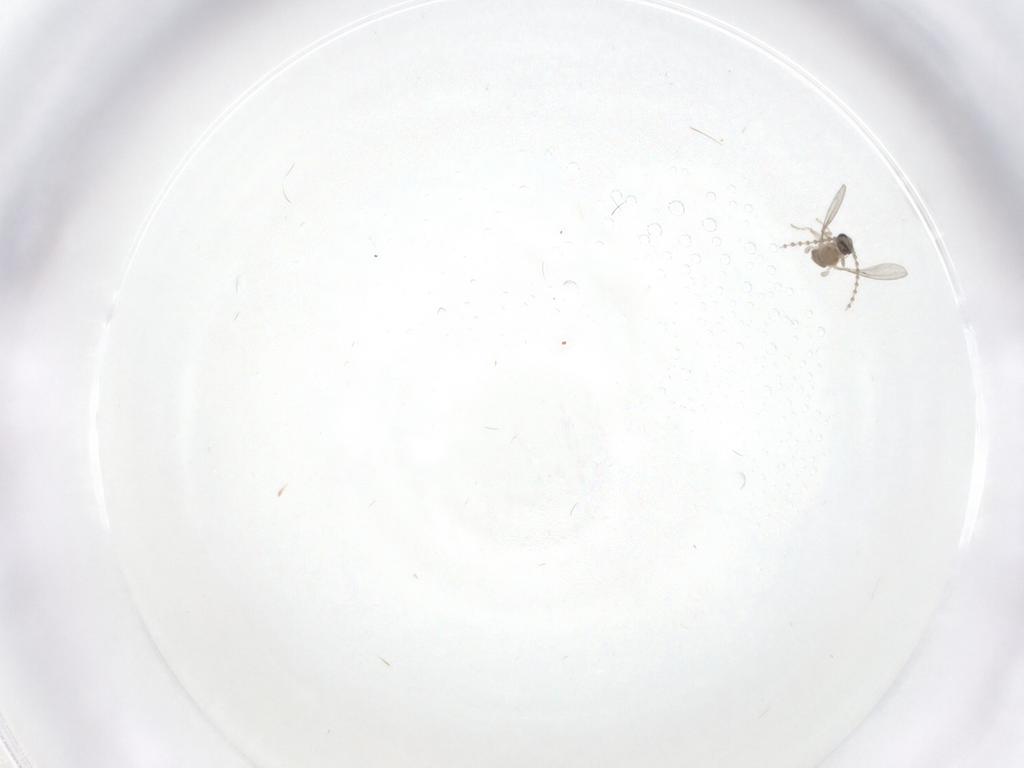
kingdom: Animalia
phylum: Arthropoda
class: Insecta
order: Diptera
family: Cecidomyiidae
